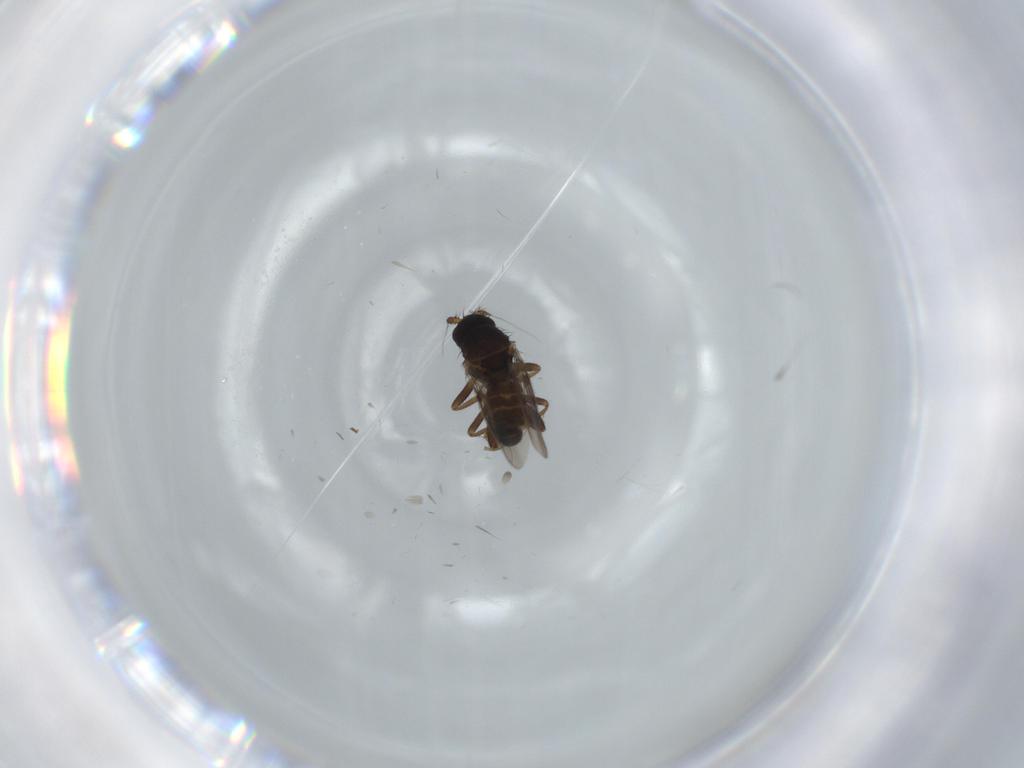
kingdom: Animalia
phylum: Arthropoda
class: Insecta
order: Diptera
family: Sphaeroceridae
